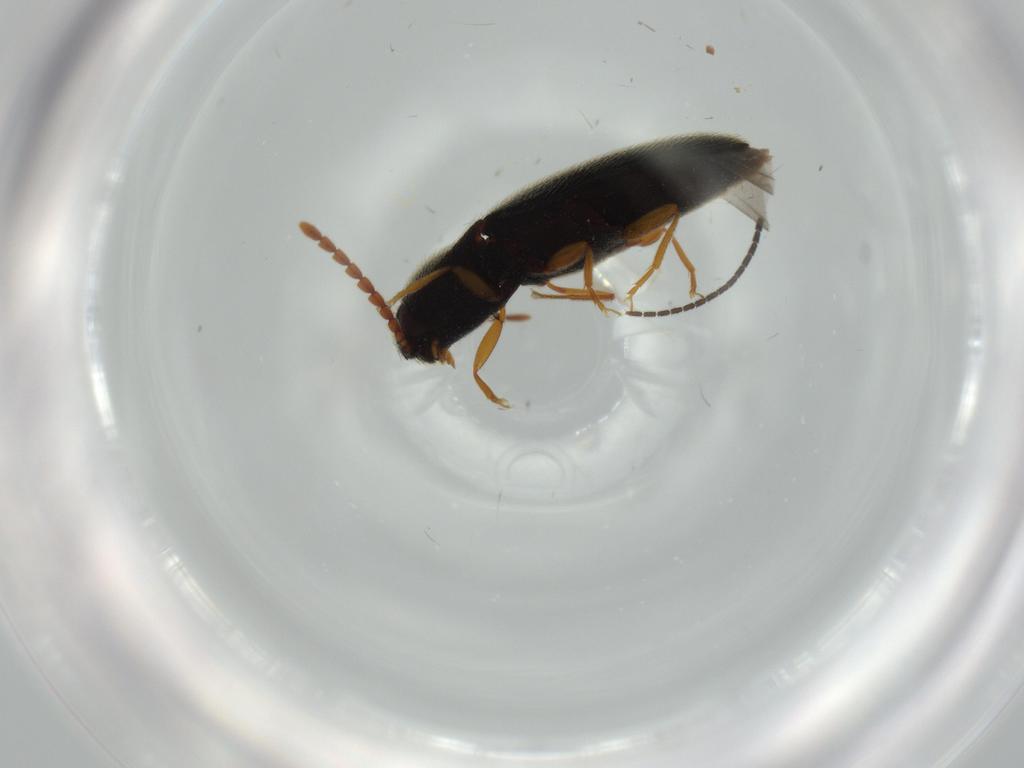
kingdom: Animalia
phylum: Arthropoda
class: Insecta
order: Coleoptera
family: Chrysomelidae
